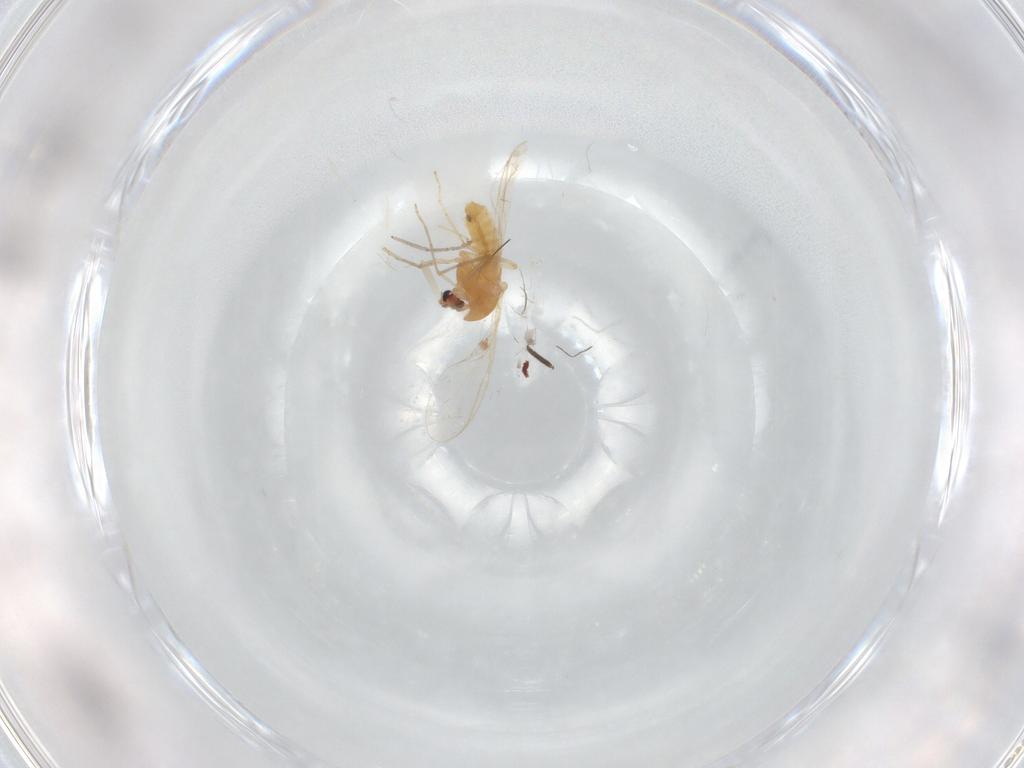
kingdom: Animalia
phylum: Arthropoda
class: Insecta
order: Diptera
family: Chironomidae
